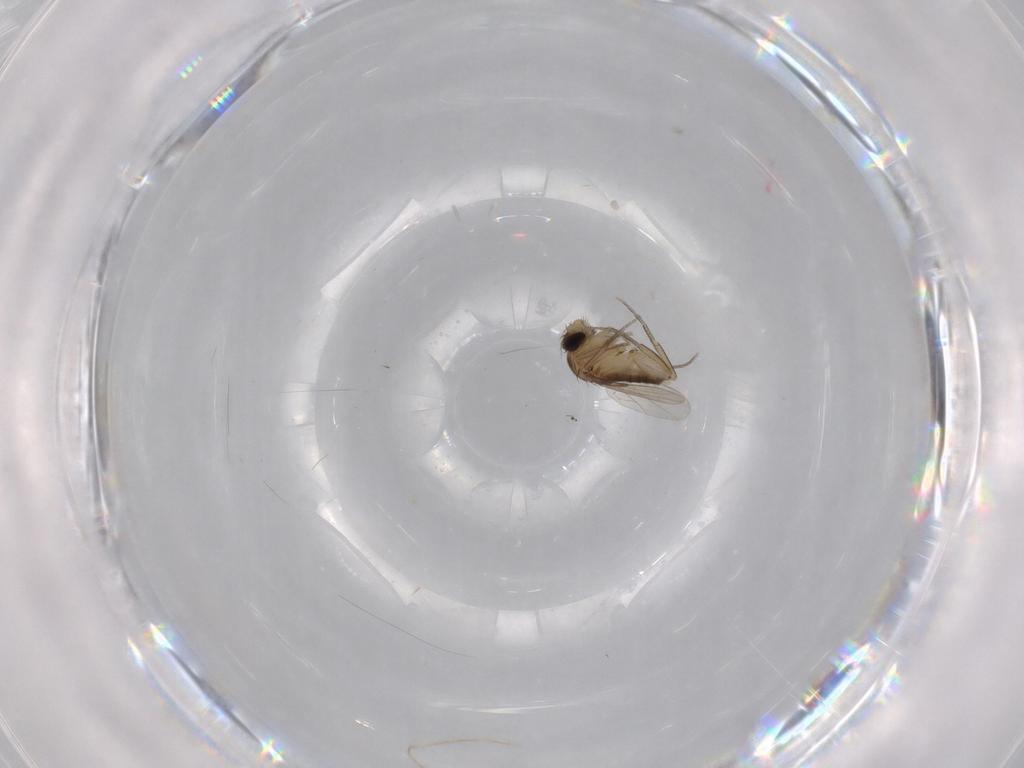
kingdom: Animalia
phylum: Arthropoda
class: Insecta
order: Diptera
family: Phoridae
